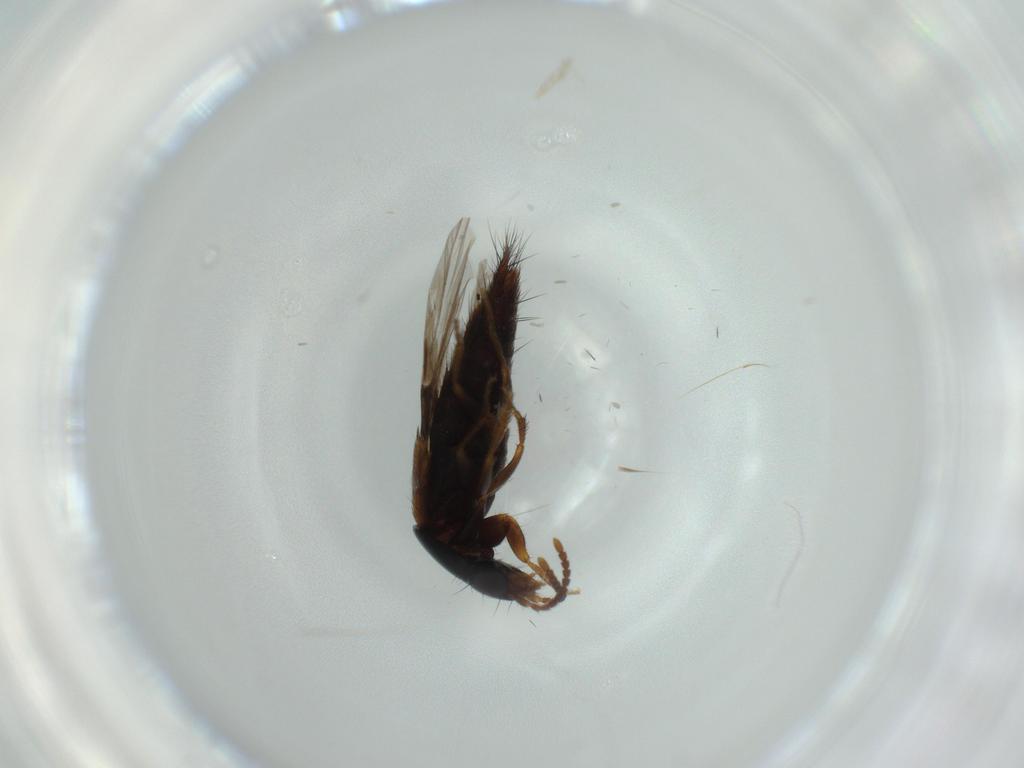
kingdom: Animalia
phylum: Arthropoda
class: Insecta
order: Coleoptera
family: Staphylinidae
